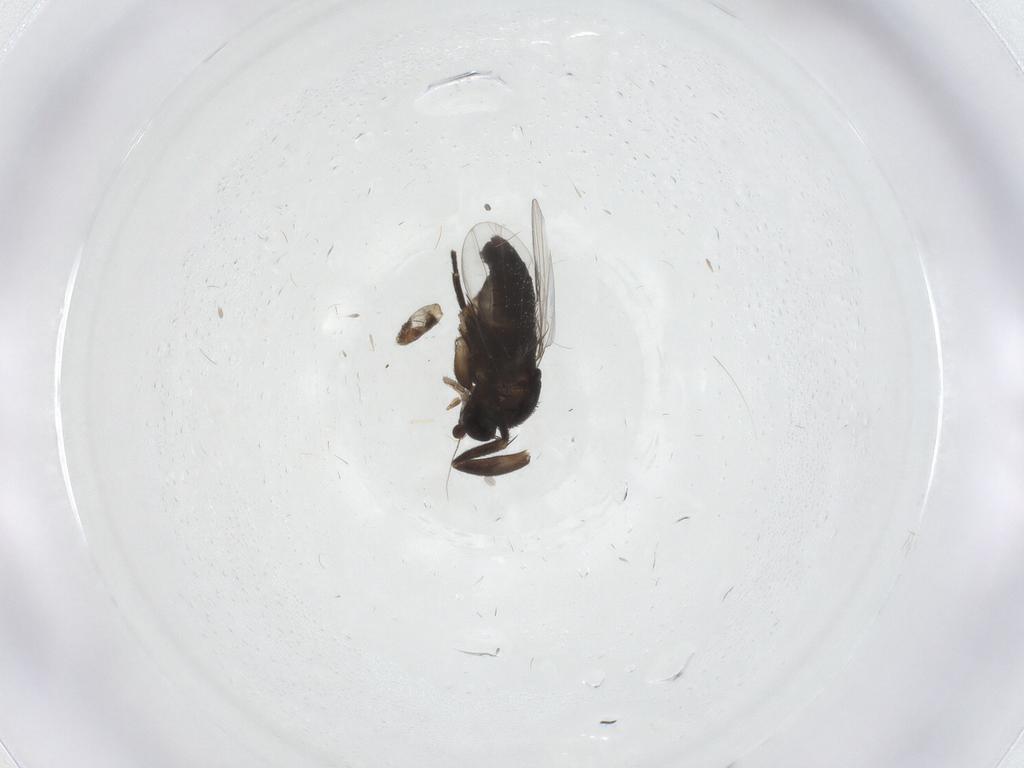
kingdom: Animalia
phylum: Arthropoda
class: Insecta
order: Diptera
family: Phoridae
